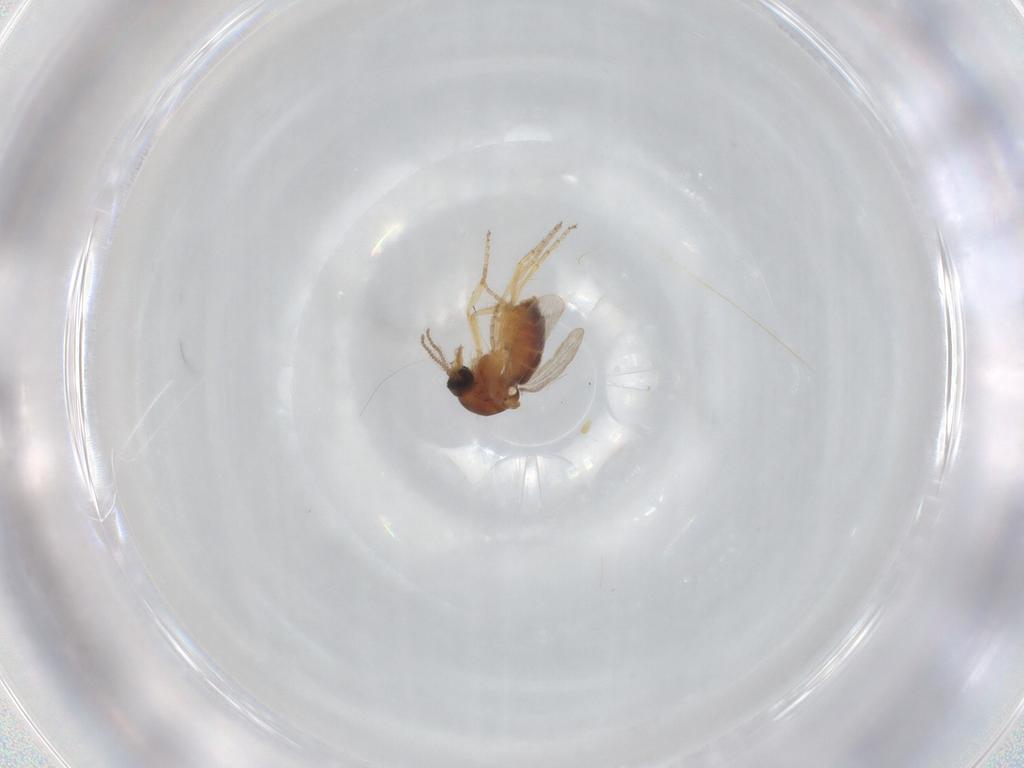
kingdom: Animalia
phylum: Arthropoda
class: Insecta
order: Diptera
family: Ceratopogonidae
